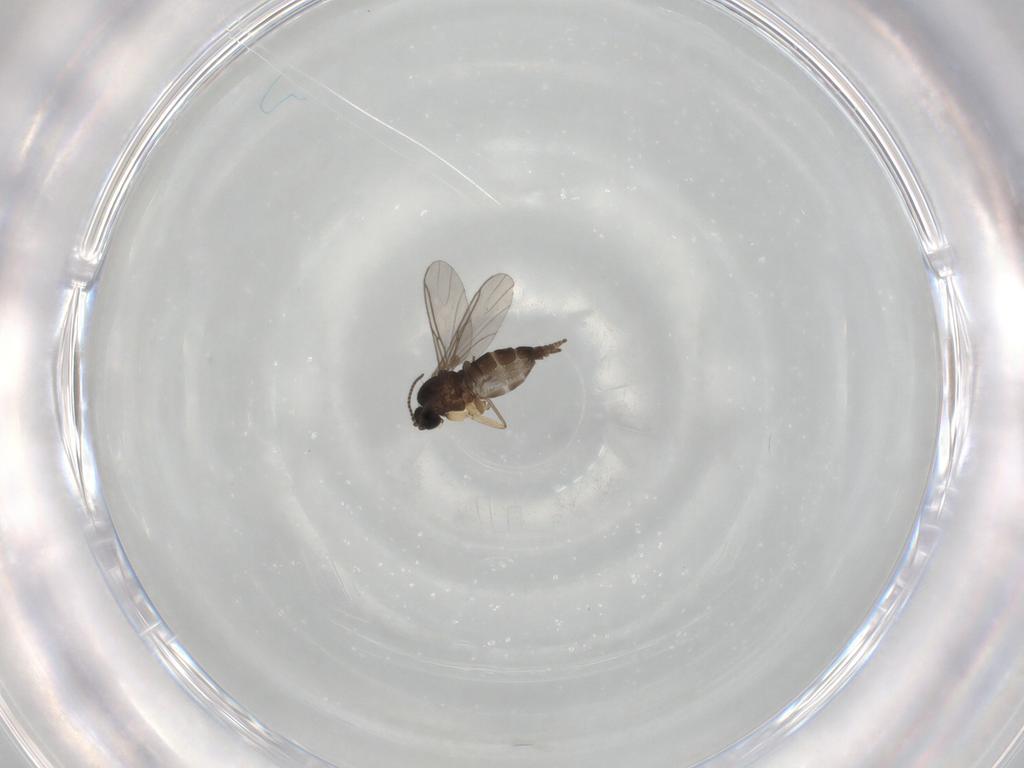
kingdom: Animalia
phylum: Arthropoda
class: Insecta
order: Diptera
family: Sciaridae
